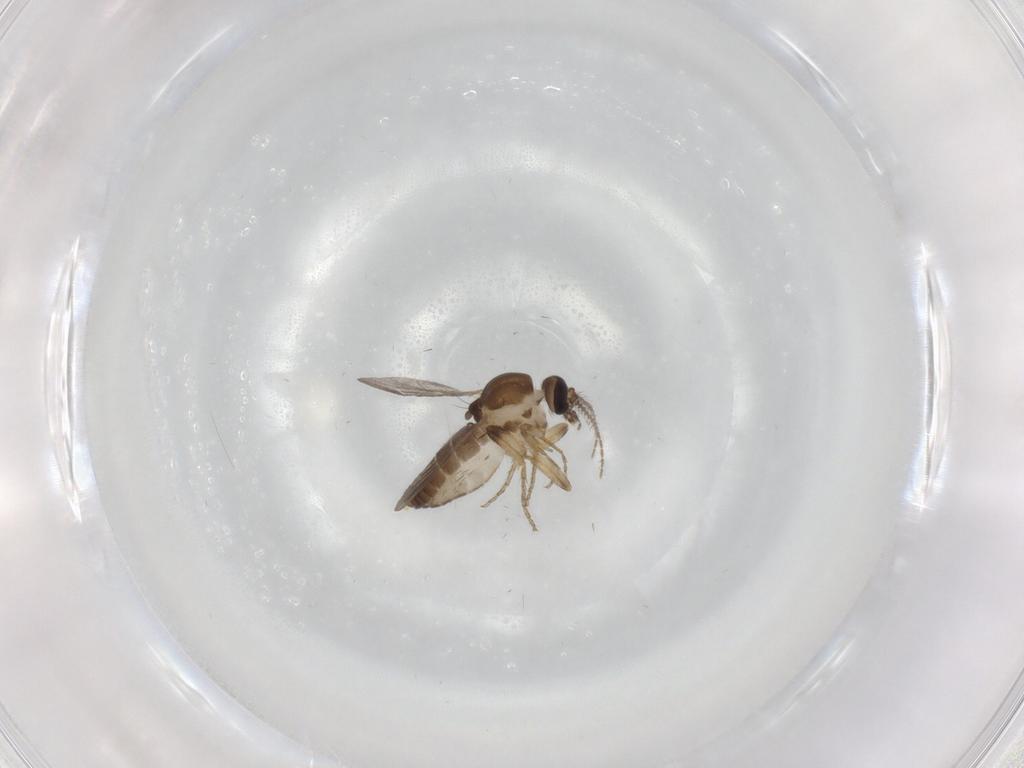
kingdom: Animalia
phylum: Arthropoda
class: Insecta
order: Diptera
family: Ceratopogonidae
